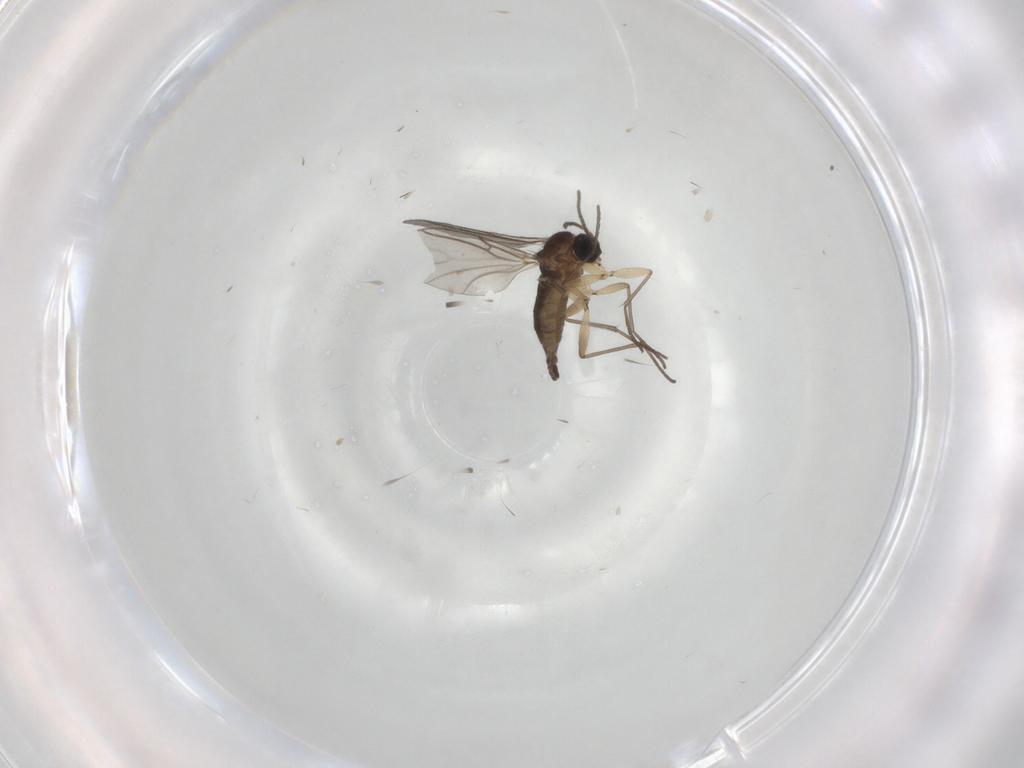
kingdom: Animalia
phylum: Arthropoda
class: Insecta
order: Diptera
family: Sciaridae
